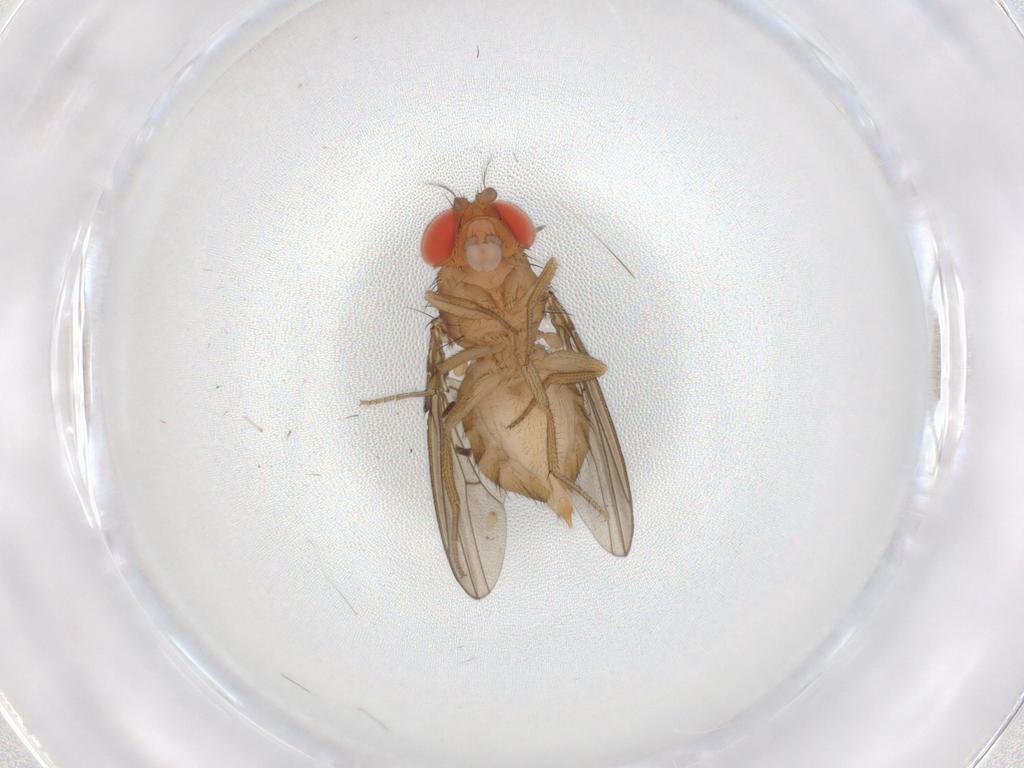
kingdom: Animalia
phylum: Arthropoda
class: Insecta
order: Diptera
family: Drosophilidae
